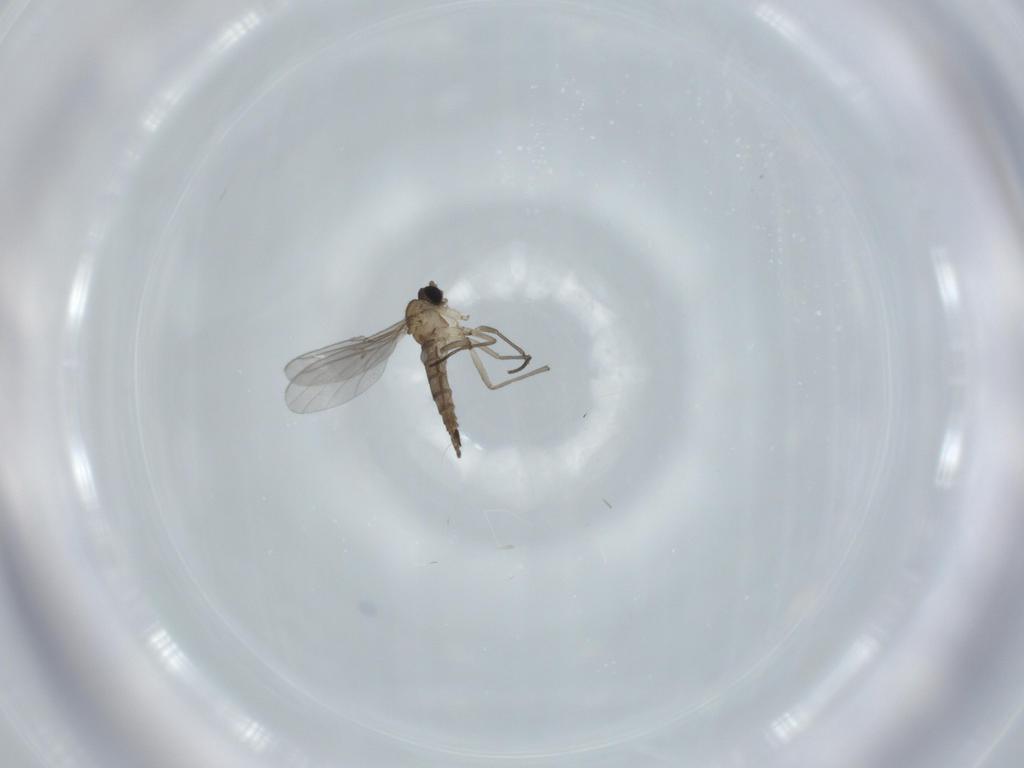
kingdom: Animalia
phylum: Arthropoda
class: Insecta
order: Diptera
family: Sciaridae
